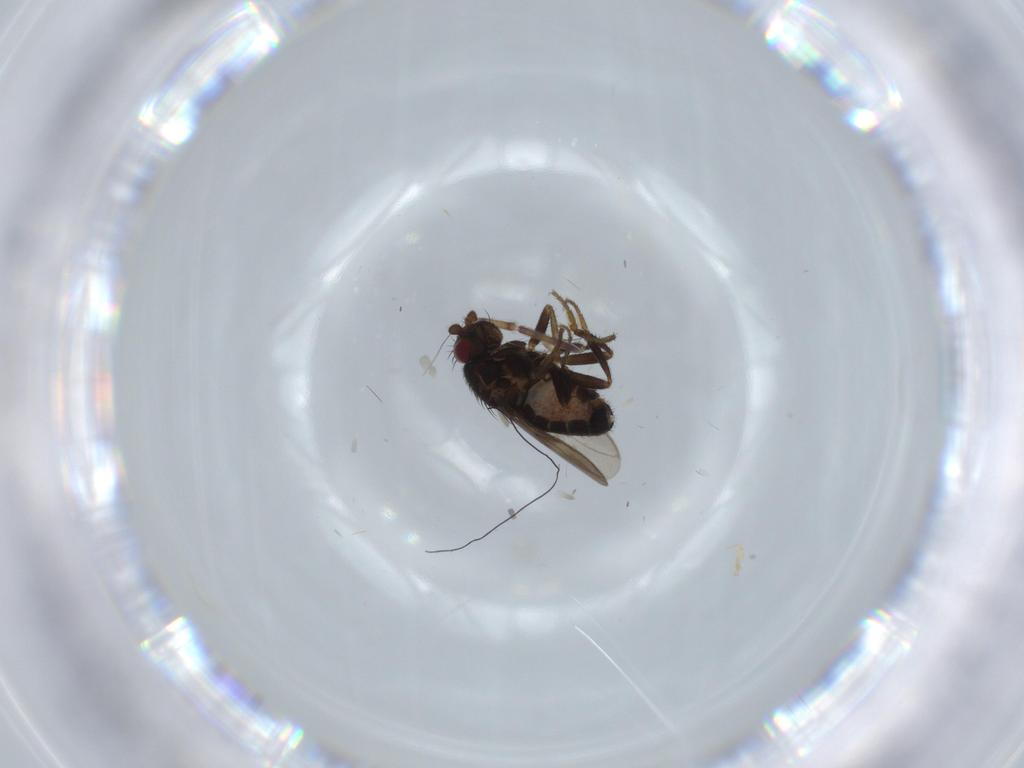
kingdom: Animalia
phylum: Arthropoda
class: Insecta
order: Diptera
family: Sphaeroceridae
